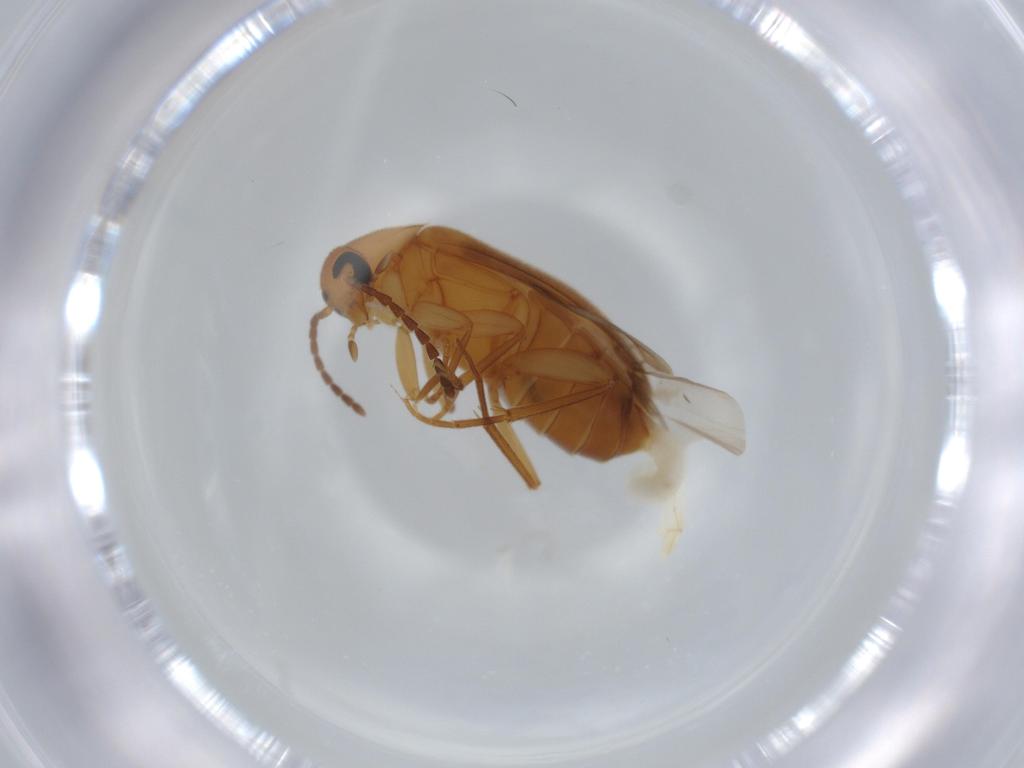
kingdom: Animalia
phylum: Arthropoda
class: Insecta
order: Coleoptera
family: Scraptiidae
